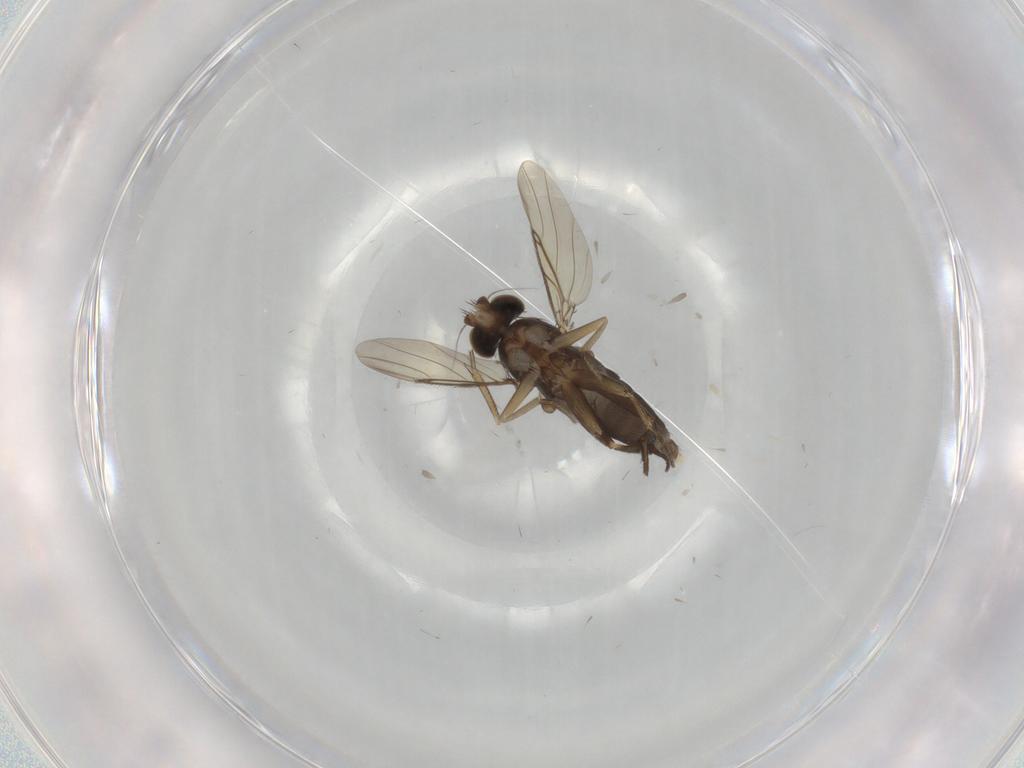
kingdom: Animalia
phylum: Arthropoda
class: Insecta
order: Diptera
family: Phoridae
